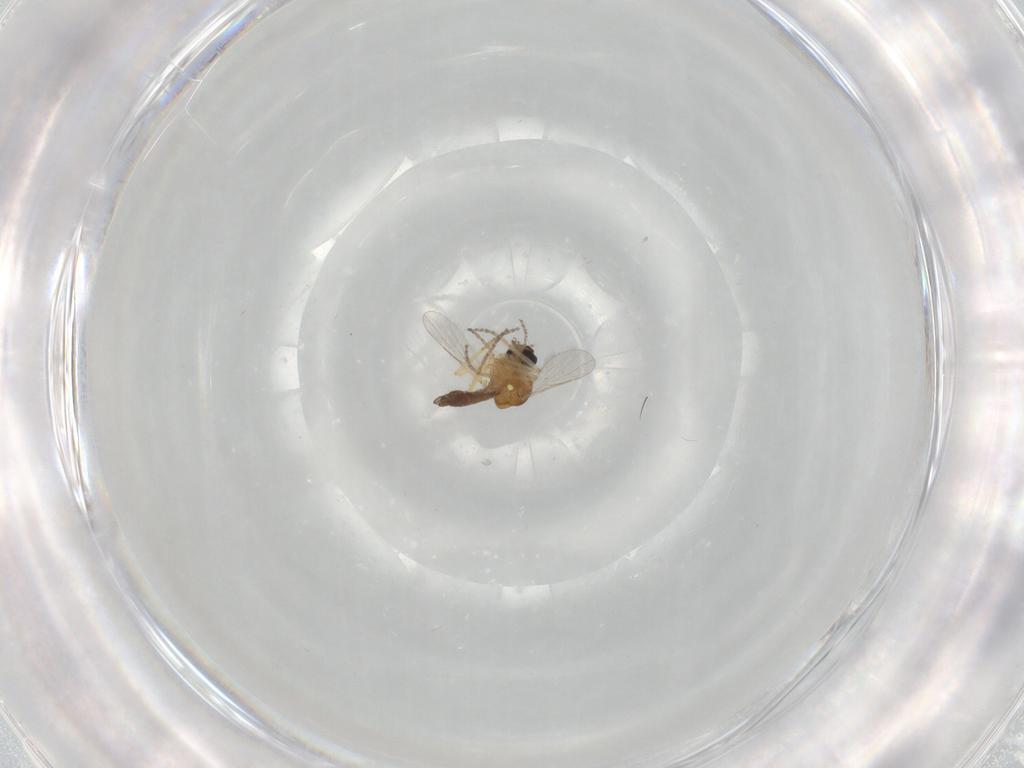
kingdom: Animalia
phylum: Arthropoda
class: Insecta
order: Diptera
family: Ceratopogonidae
